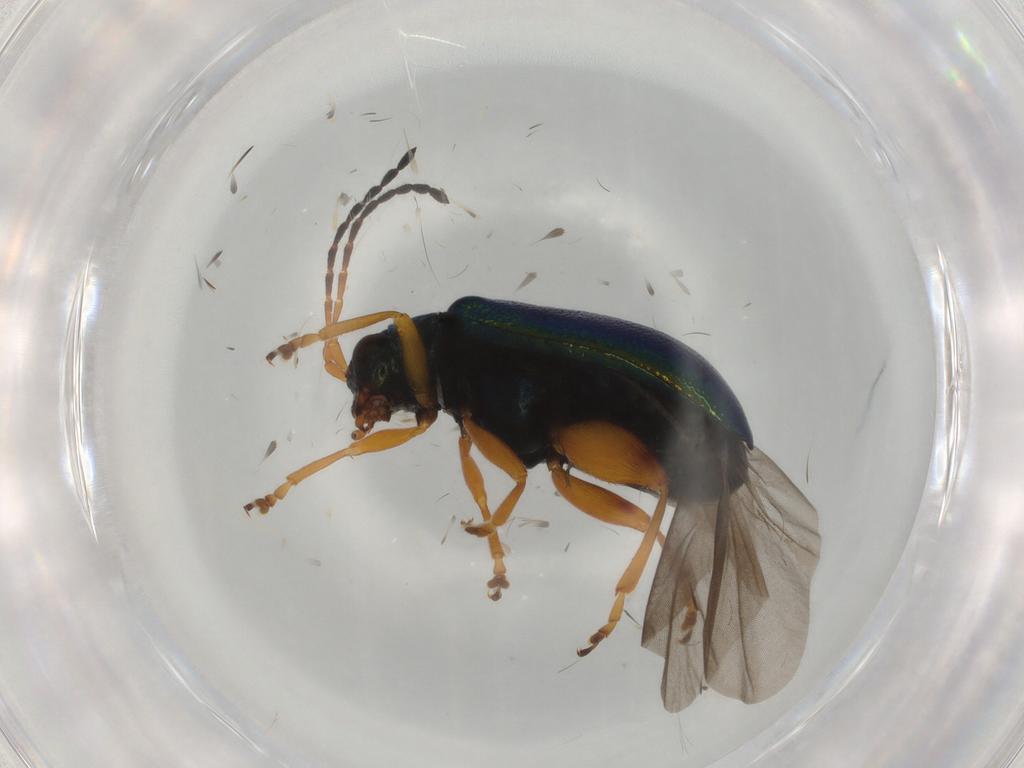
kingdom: Animalia
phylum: Arthropoda
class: Insecta
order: Coleoptera
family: Chrysomelidae
